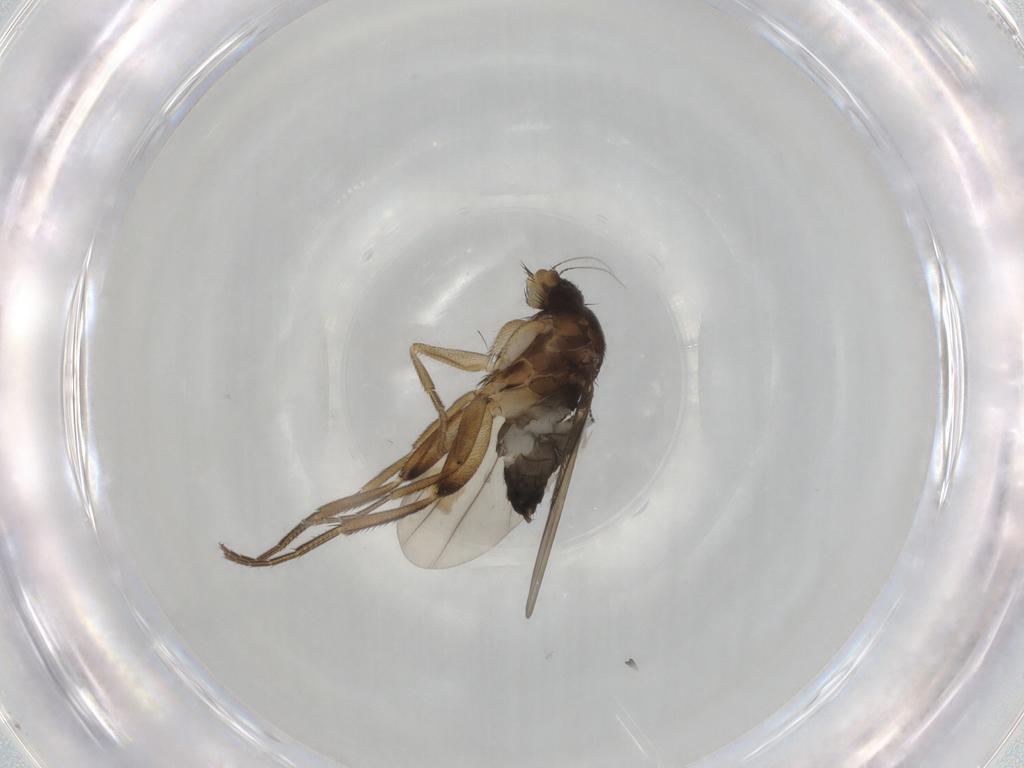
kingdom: Animalia
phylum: Arthropoda
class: Insecta
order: Diptera
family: Phoridae
